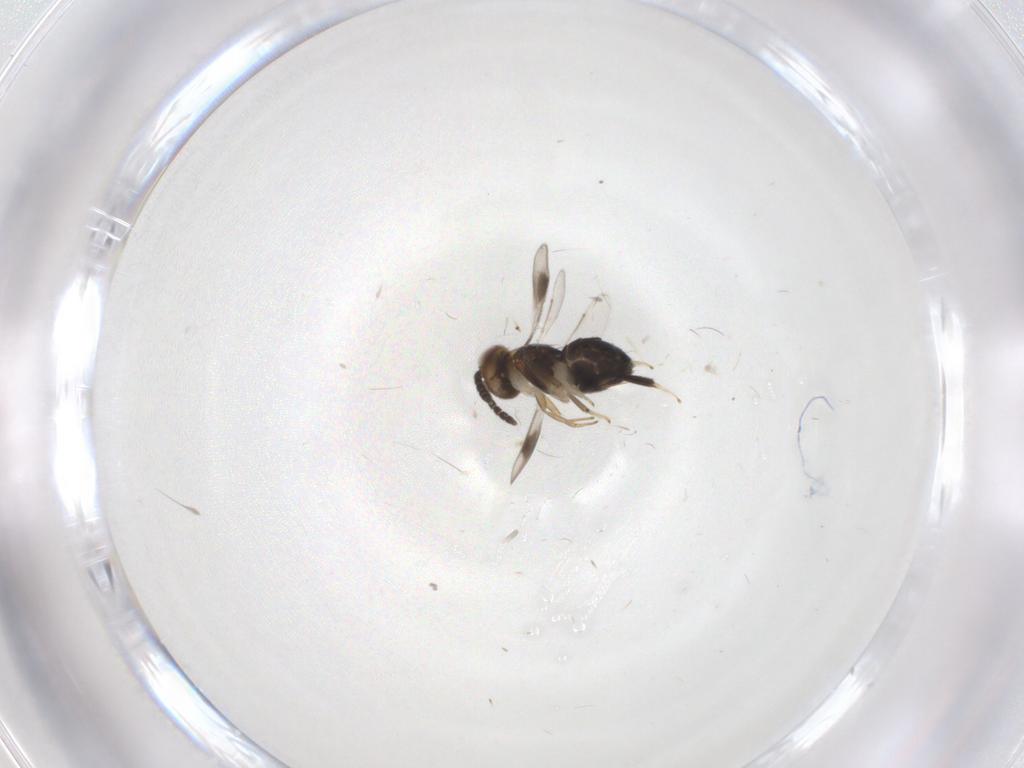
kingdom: Animalia
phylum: Arthropoda
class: Insecta
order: Hymenoptera
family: Aphelinidae
